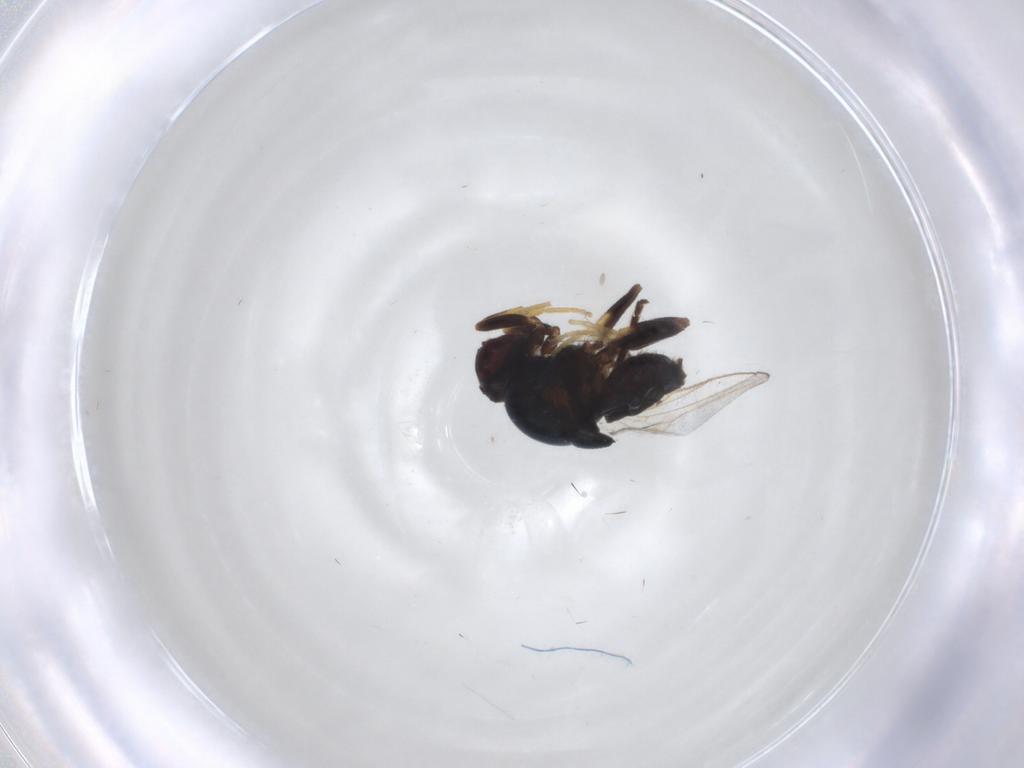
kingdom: Animalia
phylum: Arthropoda
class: Insecta
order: Diptera
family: Chloropidae
